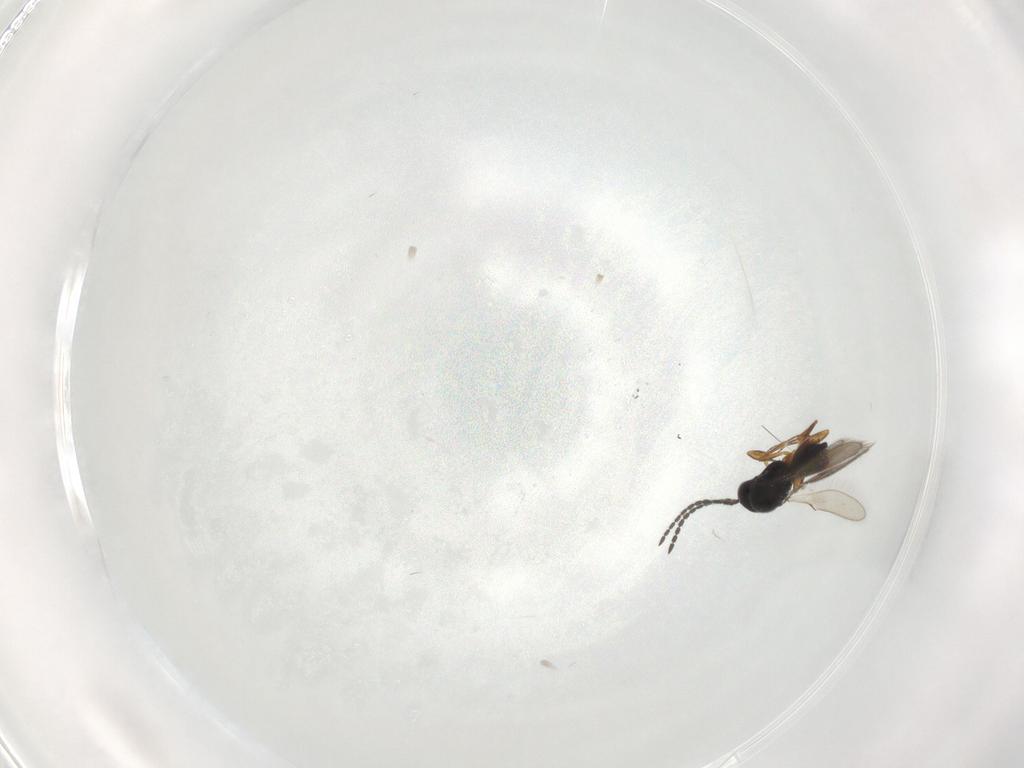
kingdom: Animalia
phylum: Arthropoda
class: Insecta
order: Hymenoptera
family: Scelionidae
